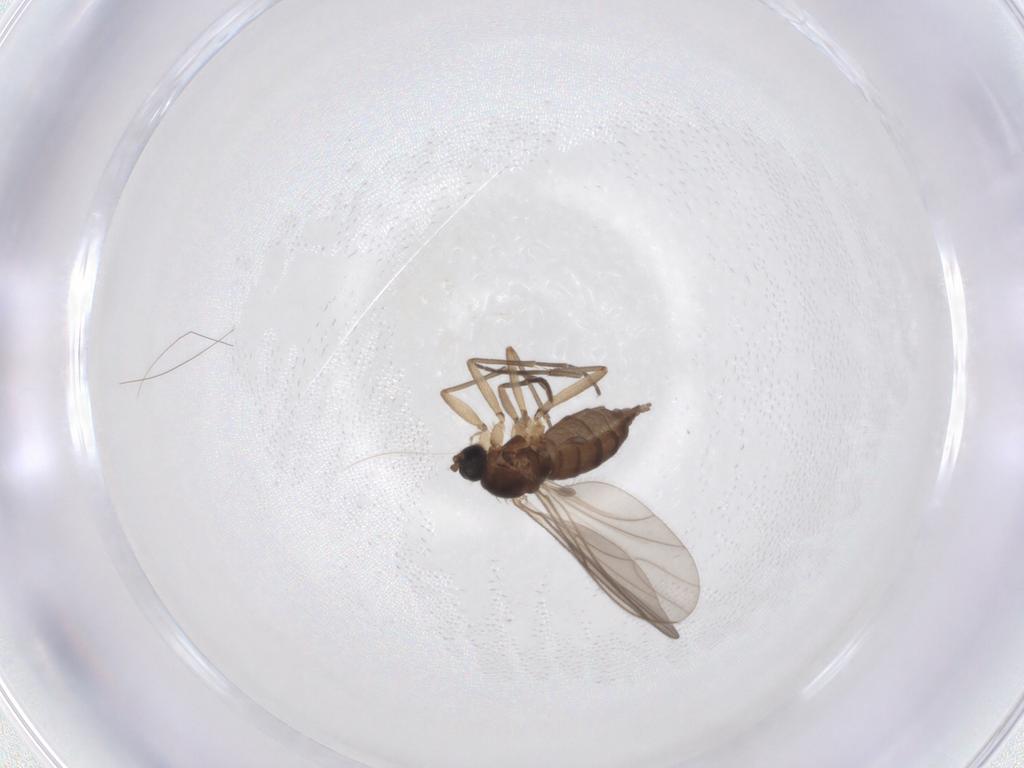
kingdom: Animalia
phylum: Arthropoda
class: Insecta
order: Diptera
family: Sciaridae
